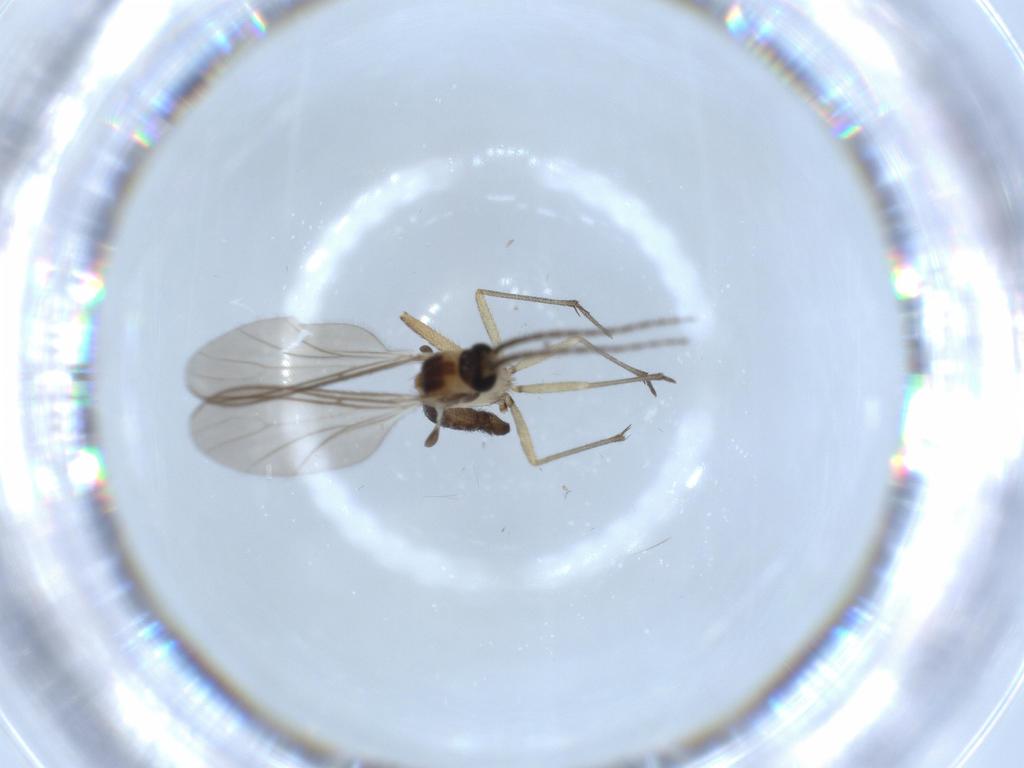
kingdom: Animalia
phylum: Arthropoda
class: Insecta
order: Diptera
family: Sciaridae
